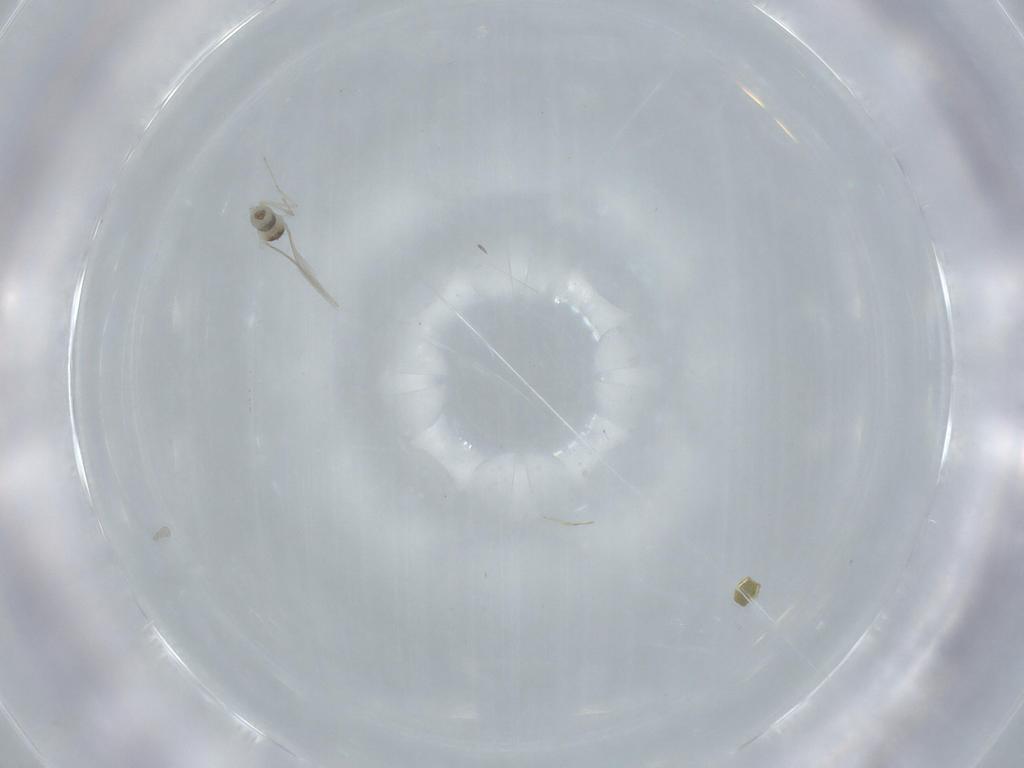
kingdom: Animalia
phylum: Arthropoda
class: Insecta
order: Diptera
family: Cecidomyiidae
